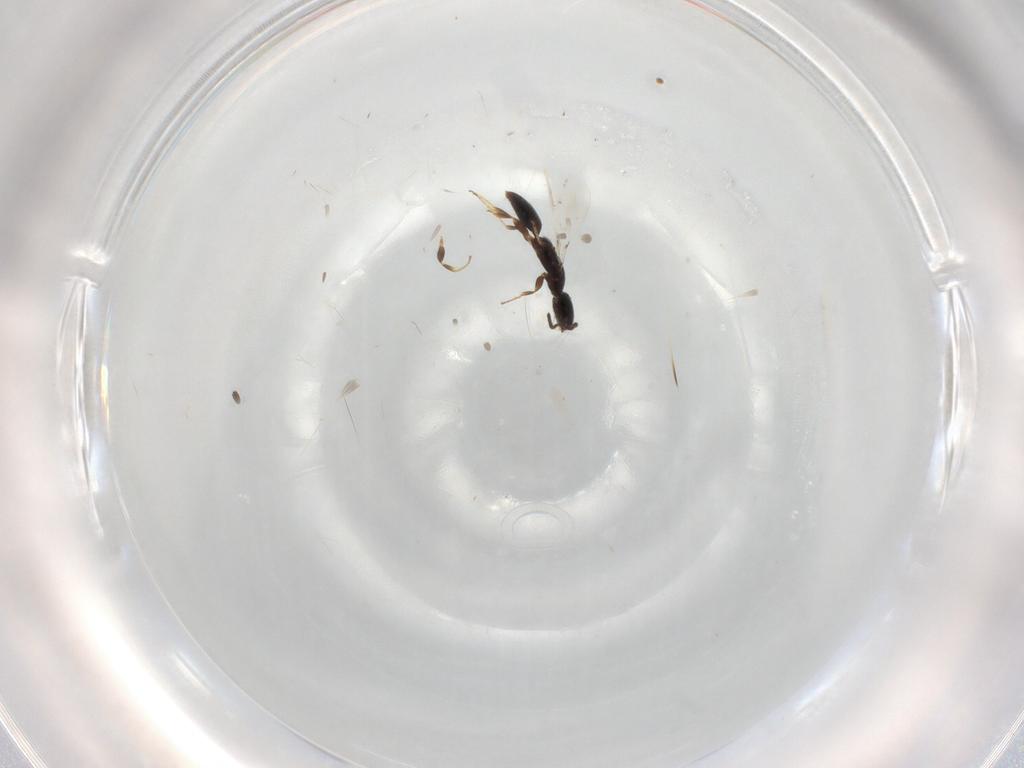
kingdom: Animalia
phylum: Arthropoda
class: Insecta
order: Hymenoptera
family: Bethylidae
